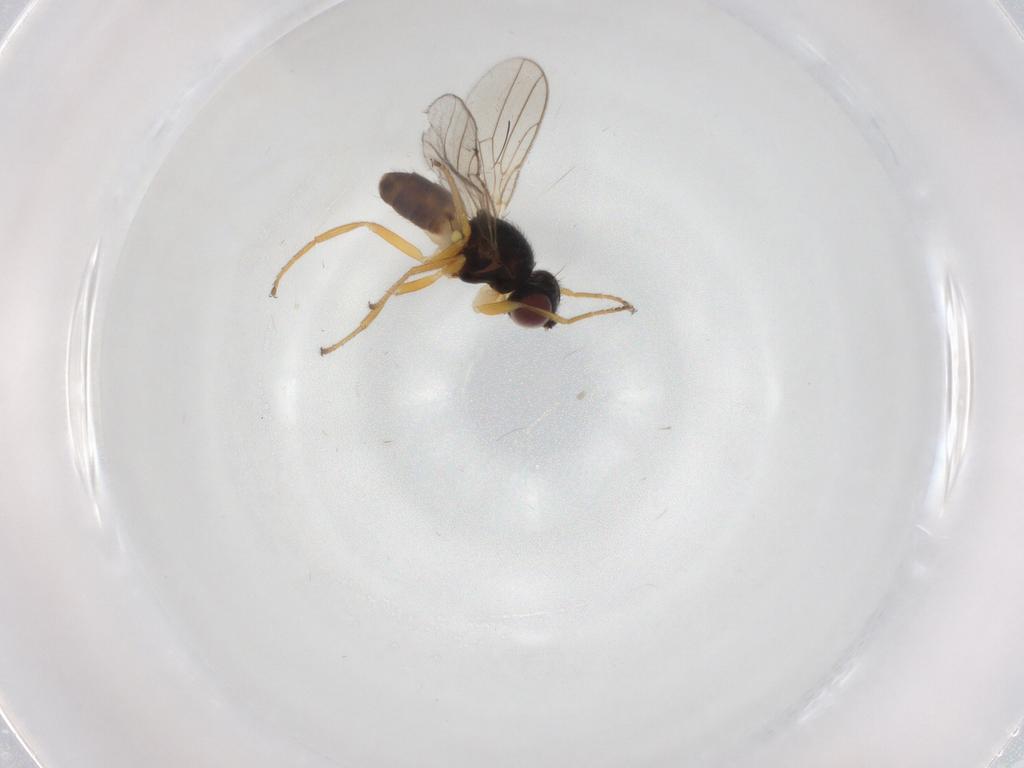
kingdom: Animalia
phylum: Arthropoda
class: Insecta
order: Diptera
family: Chloropidae
